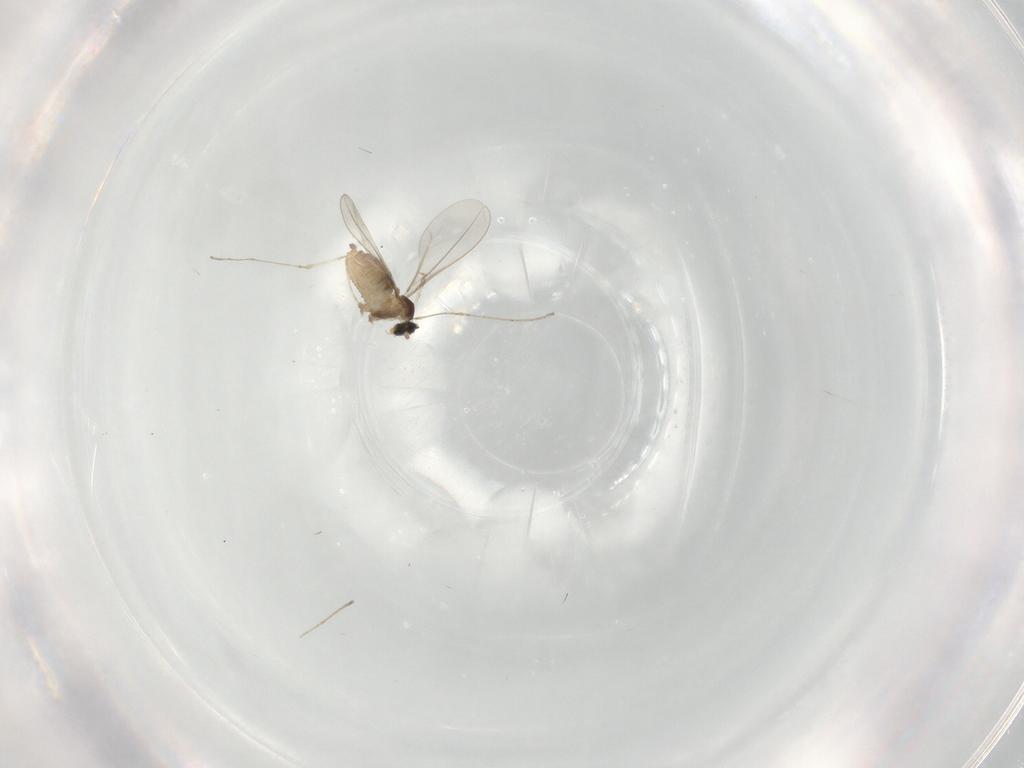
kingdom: Animalia
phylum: Arthropoda
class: Insecta
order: Diptera
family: Cecidomyiidae
